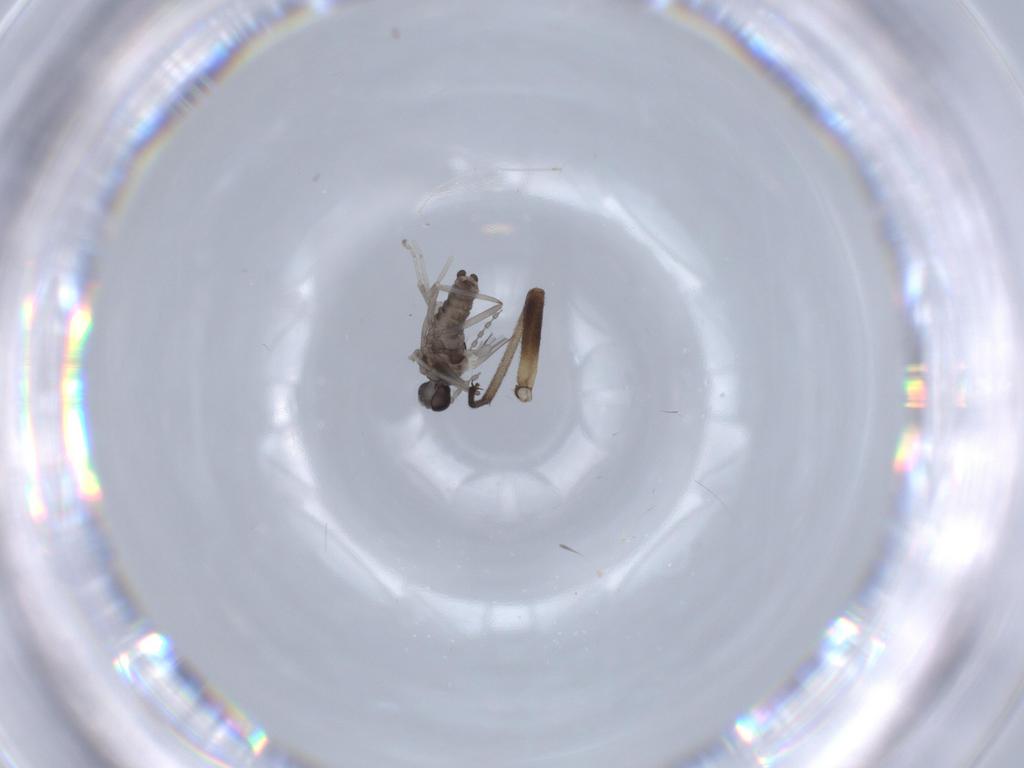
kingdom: Animalia
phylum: Arthropoda
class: Insecta
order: Diptera
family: Cecidomyiidae
